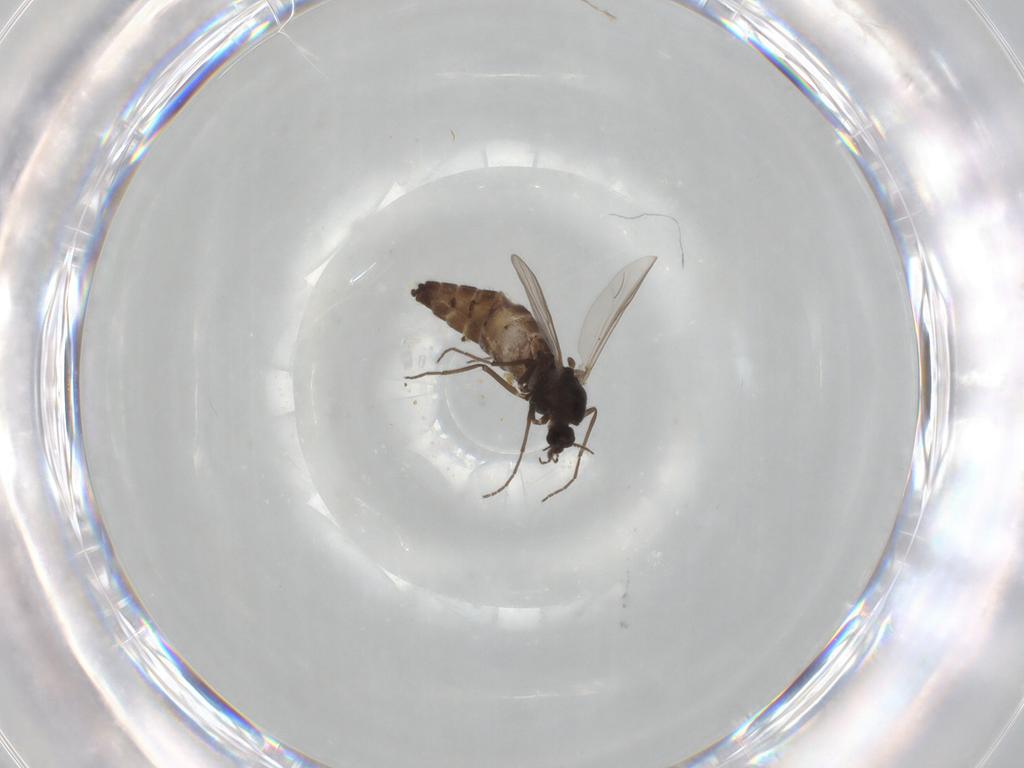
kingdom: Animalia
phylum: Arthropoda
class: Insecta
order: Diptera
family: Chironomidae
